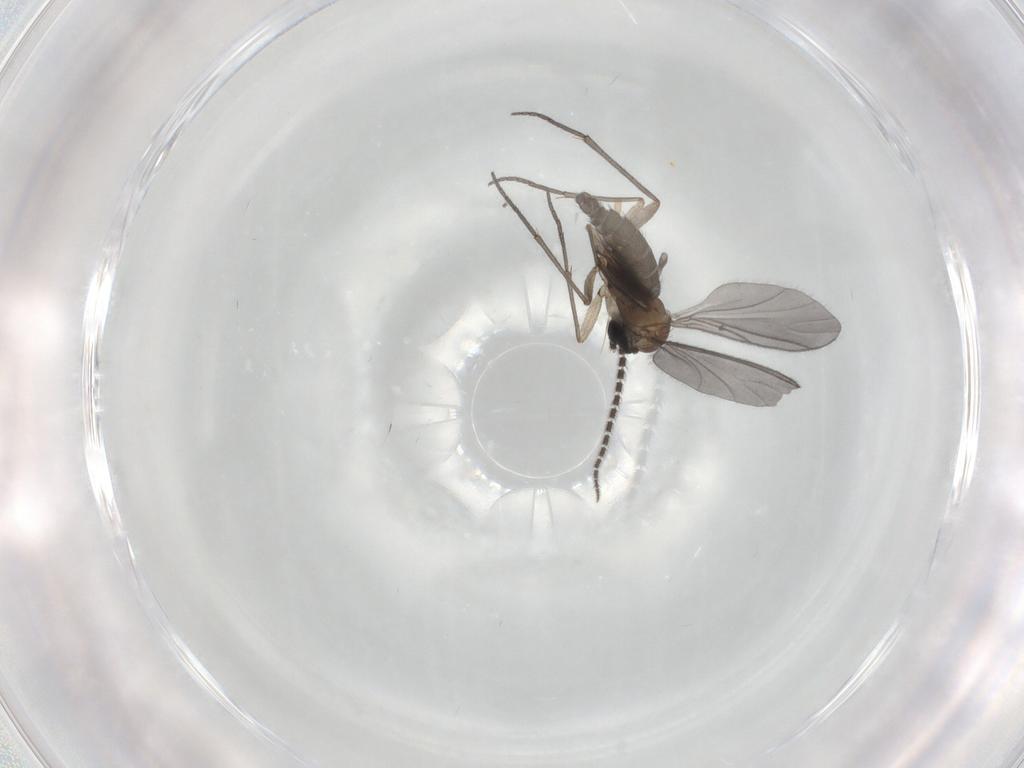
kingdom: Animalia
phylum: Arthropoda
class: Insecta
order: Diptera
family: Sciaridae
